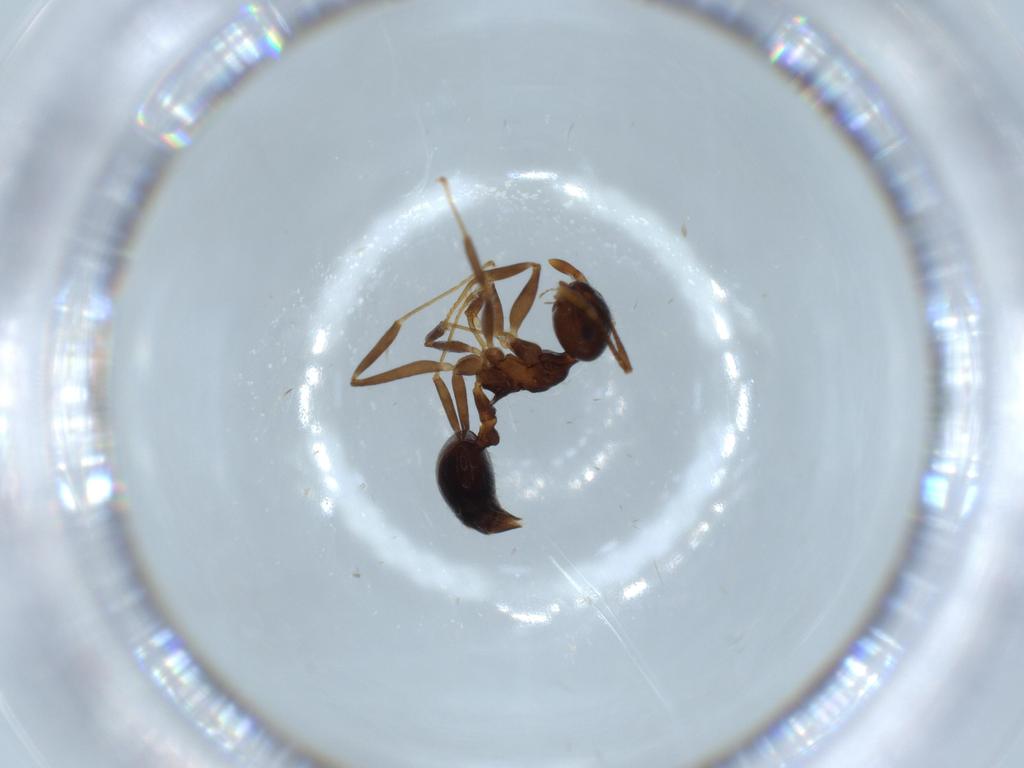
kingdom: Animalia
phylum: Arthropoda
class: Insecta
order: Hymenoptera
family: Formicidae
